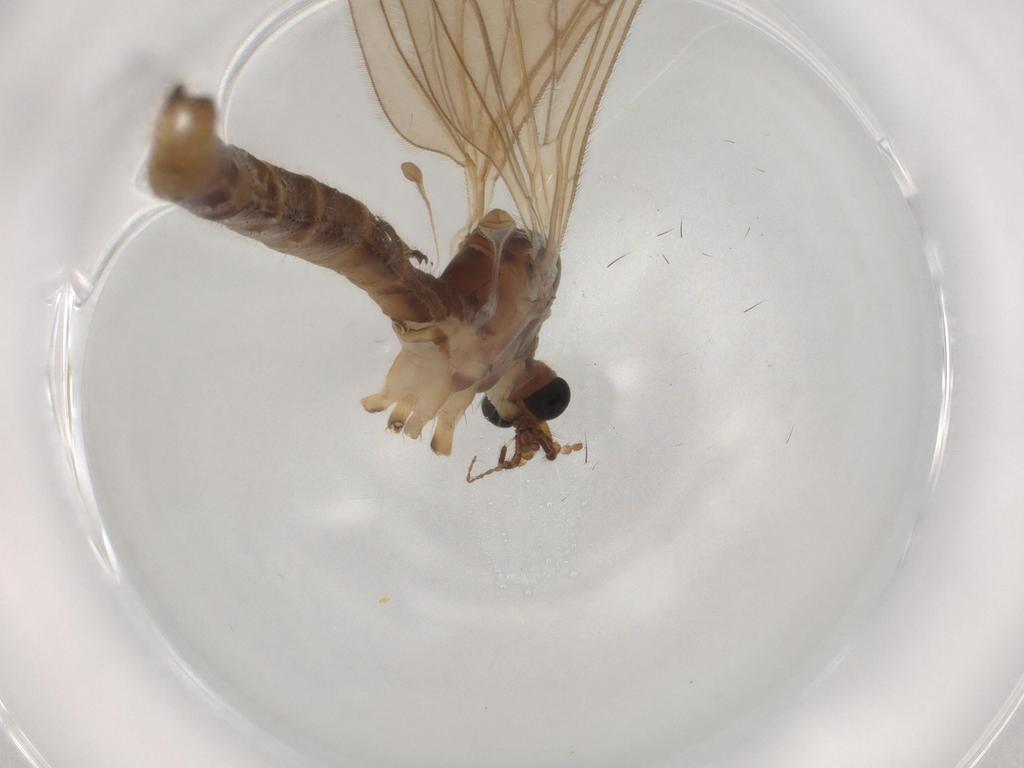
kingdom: Animalia
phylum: Arthropoda
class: Insecta
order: Diptera
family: Limoniidae
